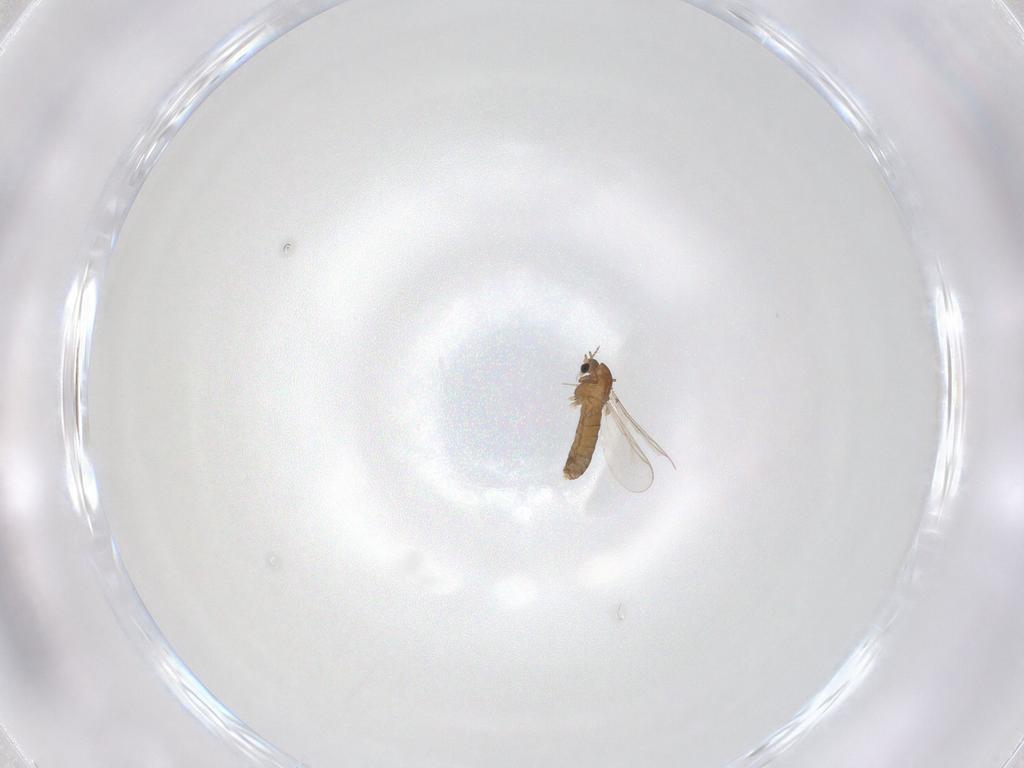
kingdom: Animalia
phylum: Arthropoda
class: Insecta
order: Diptera
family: Chironomidae
